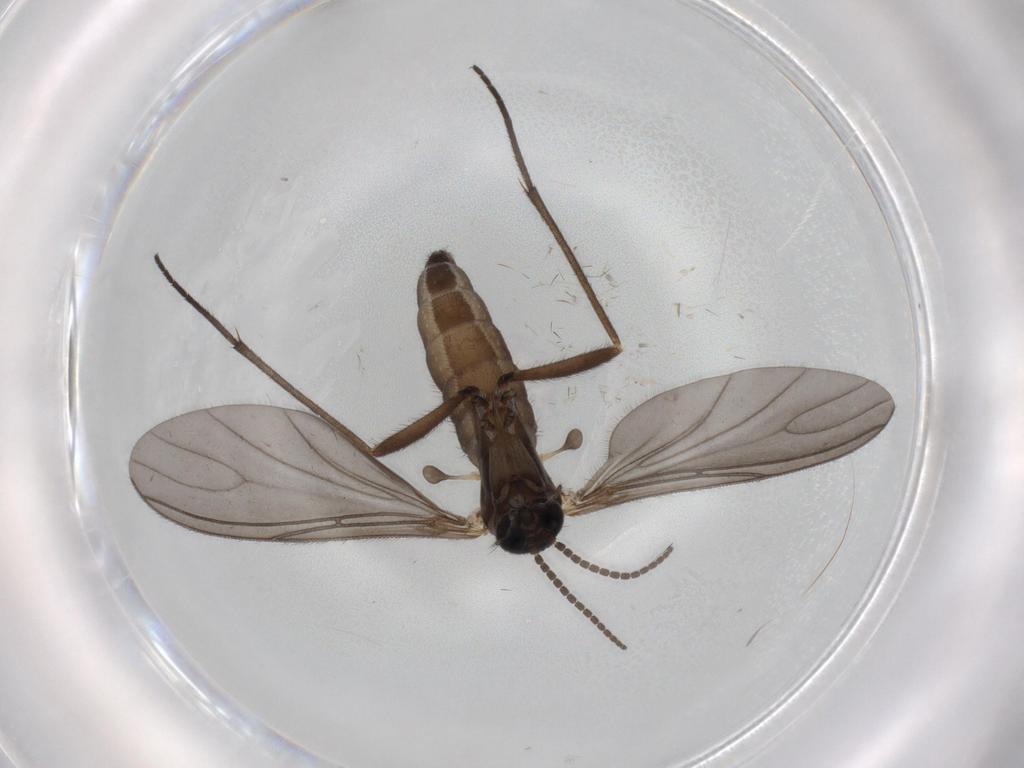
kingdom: Animalia
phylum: Arthropoda
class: Insecta
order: Diptera
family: Sciaridae
